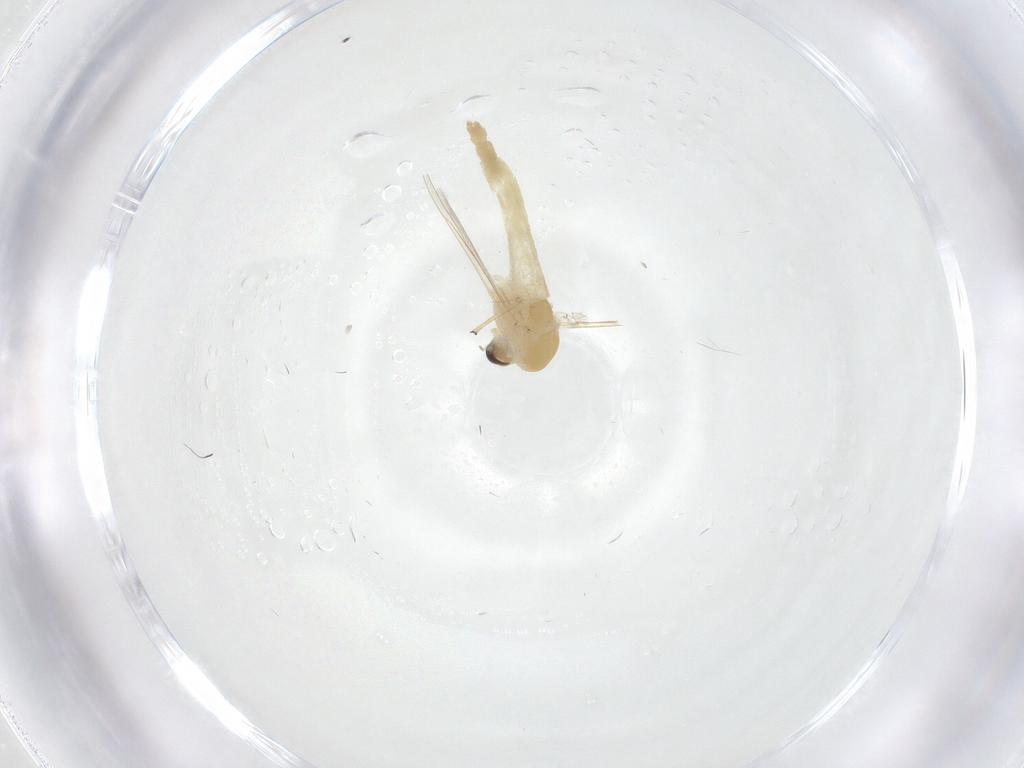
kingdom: Animalia
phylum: Arthropoda
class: Insecta
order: Diptera
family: Chironomidae
